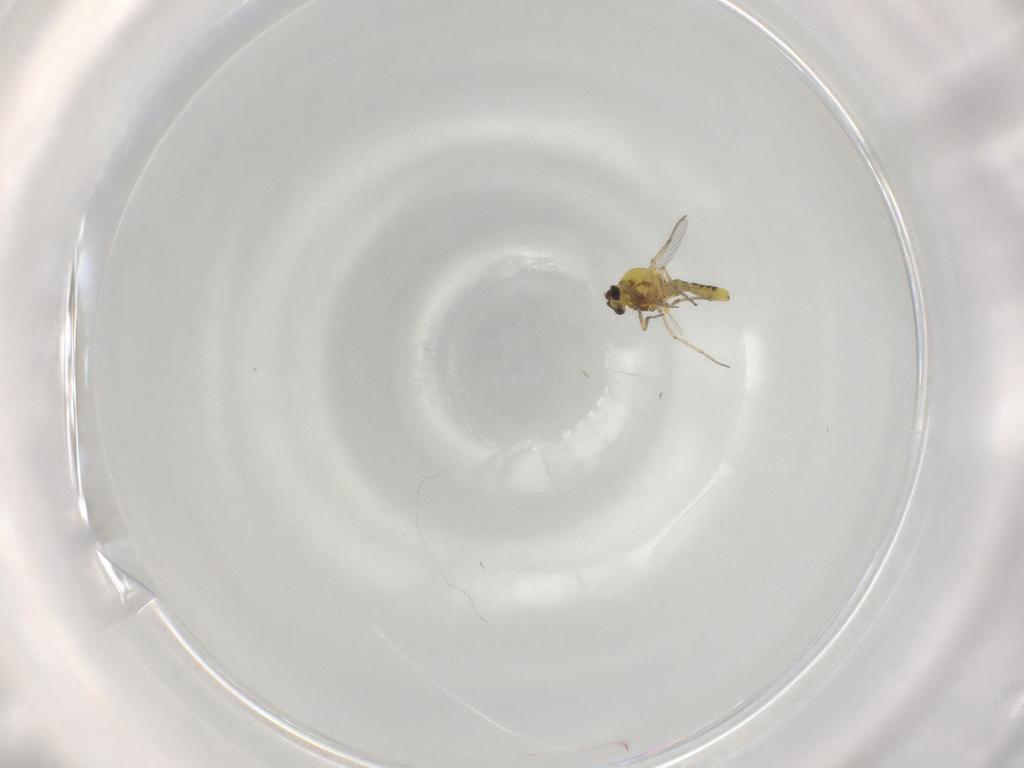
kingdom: Animalia
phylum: Arthropoda
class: Insecta
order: Diptera
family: Ceratopogonidae
